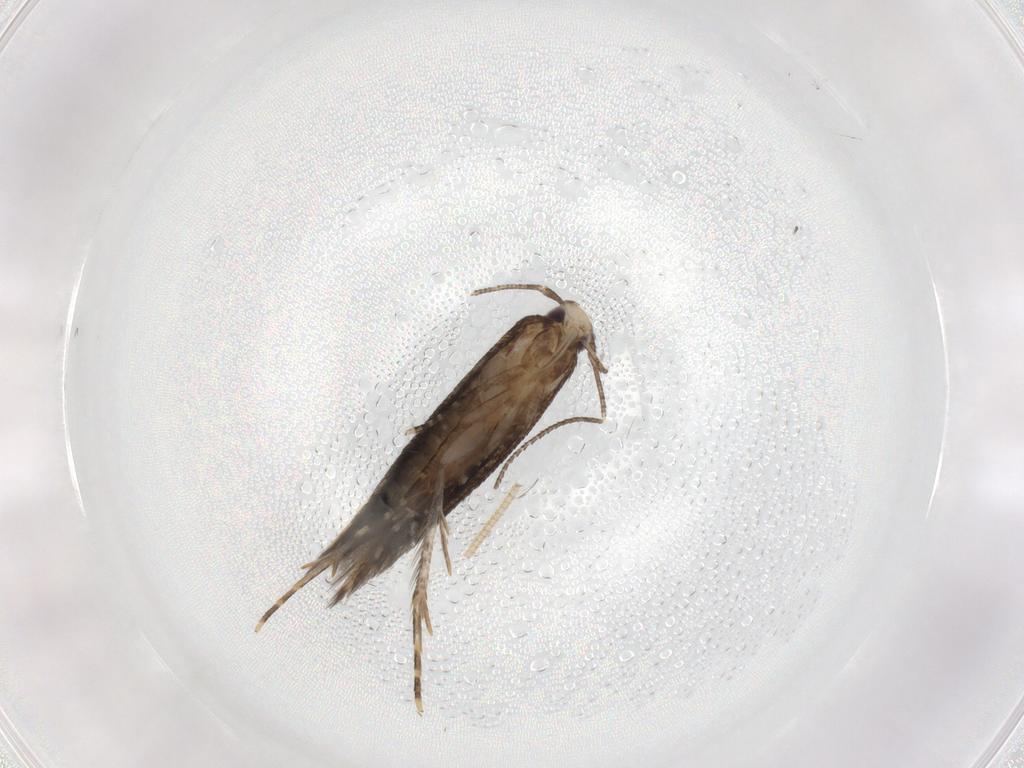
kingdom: Animalia
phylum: Arthropoda
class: Insecta
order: Lepidoptera
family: Cosmopterigidae
